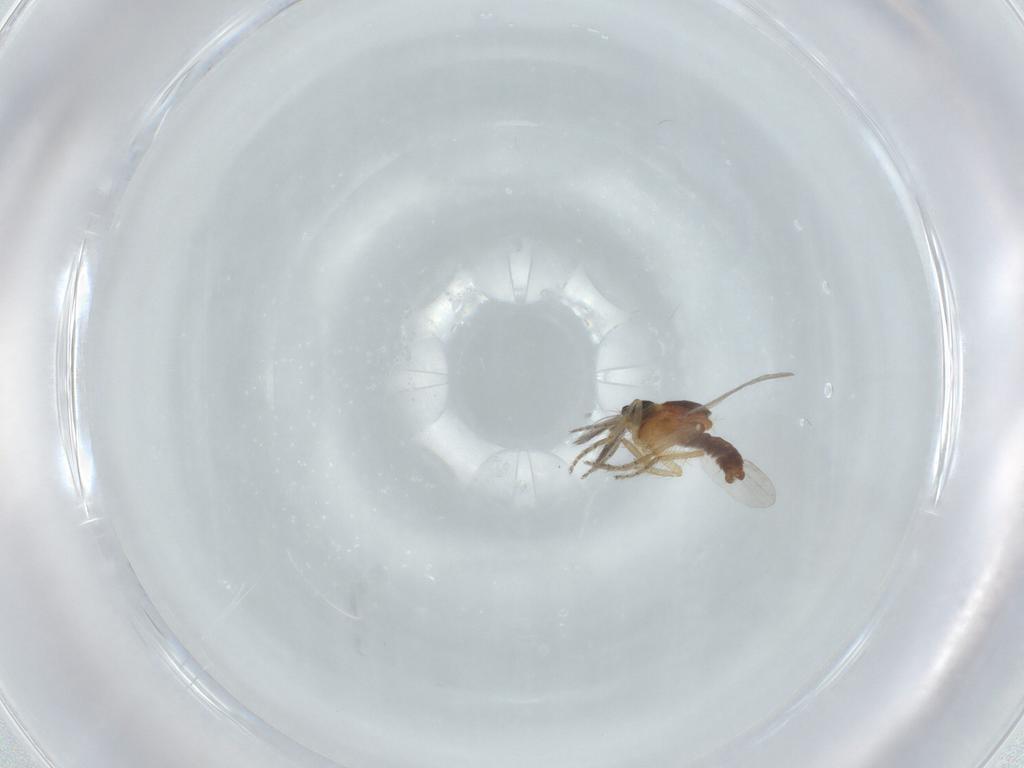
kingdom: Animalia
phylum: Arthropoda
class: Insecta
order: Diptera
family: Ceratopogonidae
